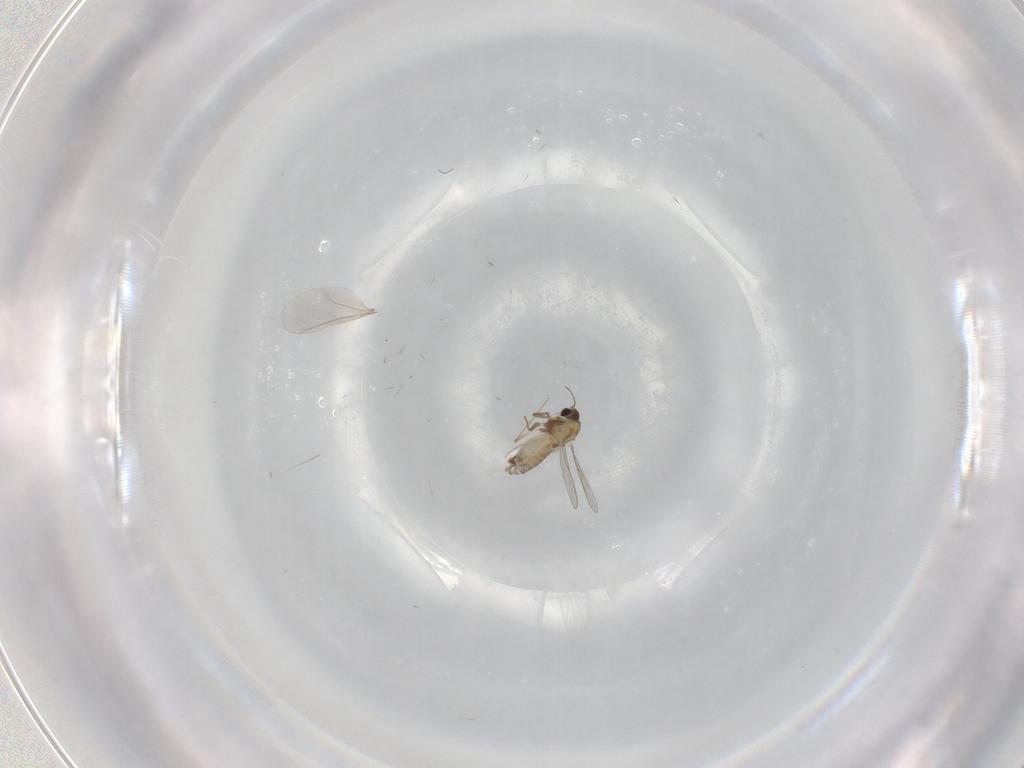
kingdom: Animalia
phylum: Arthropoda
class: Insecta
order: Diptera
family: Chironomidae
